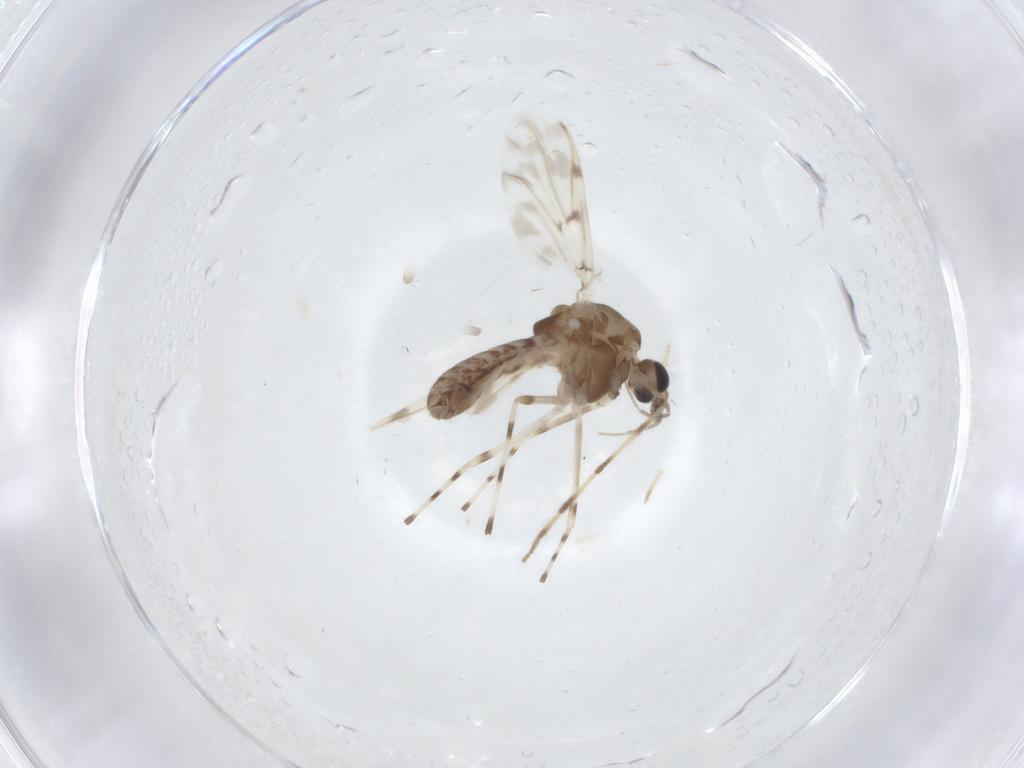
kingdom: Animalia
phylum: Arthropoda
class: Insecta
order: Diptera
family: Chironomidae
